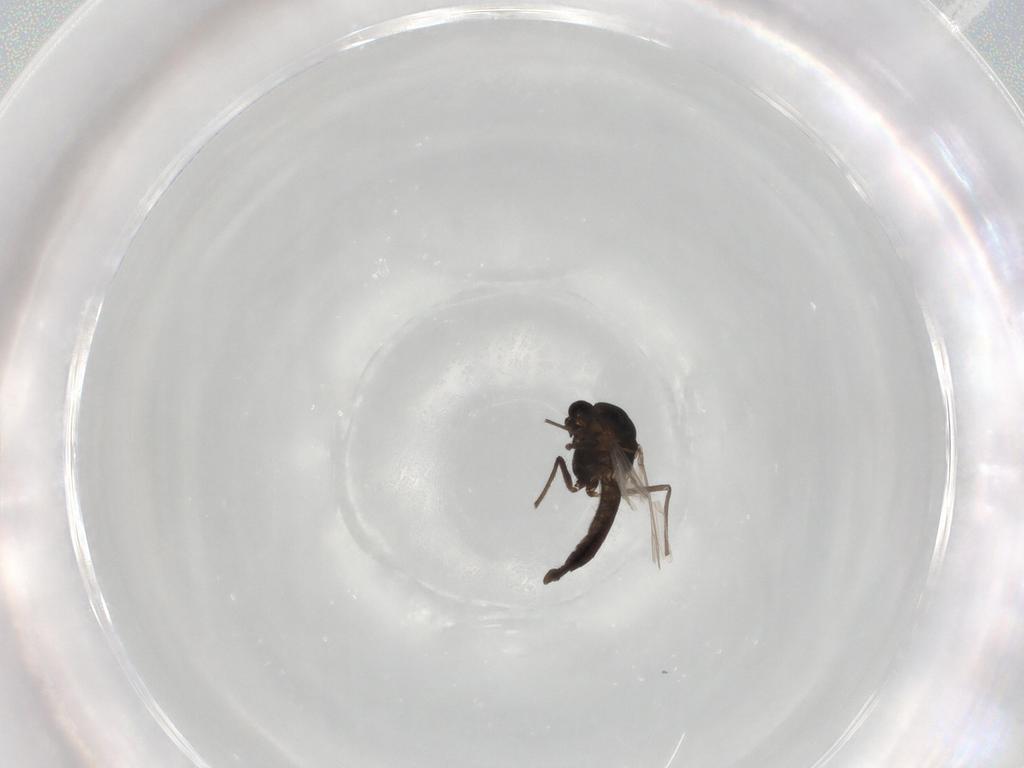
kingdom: Animalia
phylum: Arthropoda
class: Insecta
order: Diptera
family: Chironomidae
